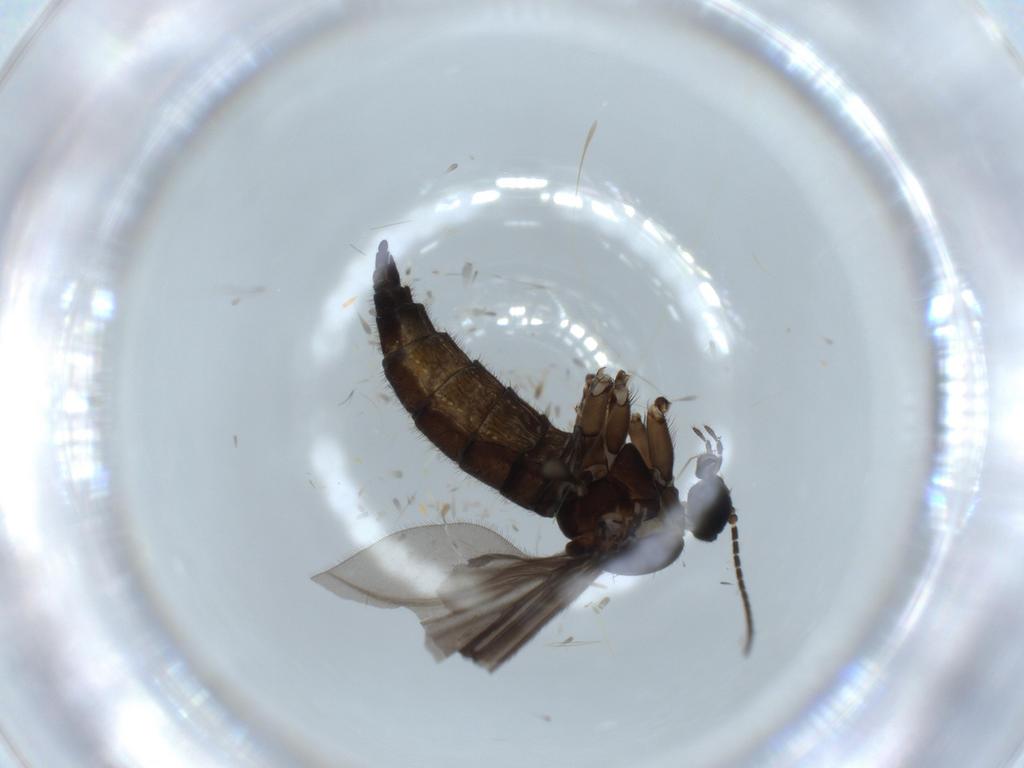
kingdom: Animalia
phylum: Arthropoda
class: Insecta
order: Diptera
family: Sciaridae
